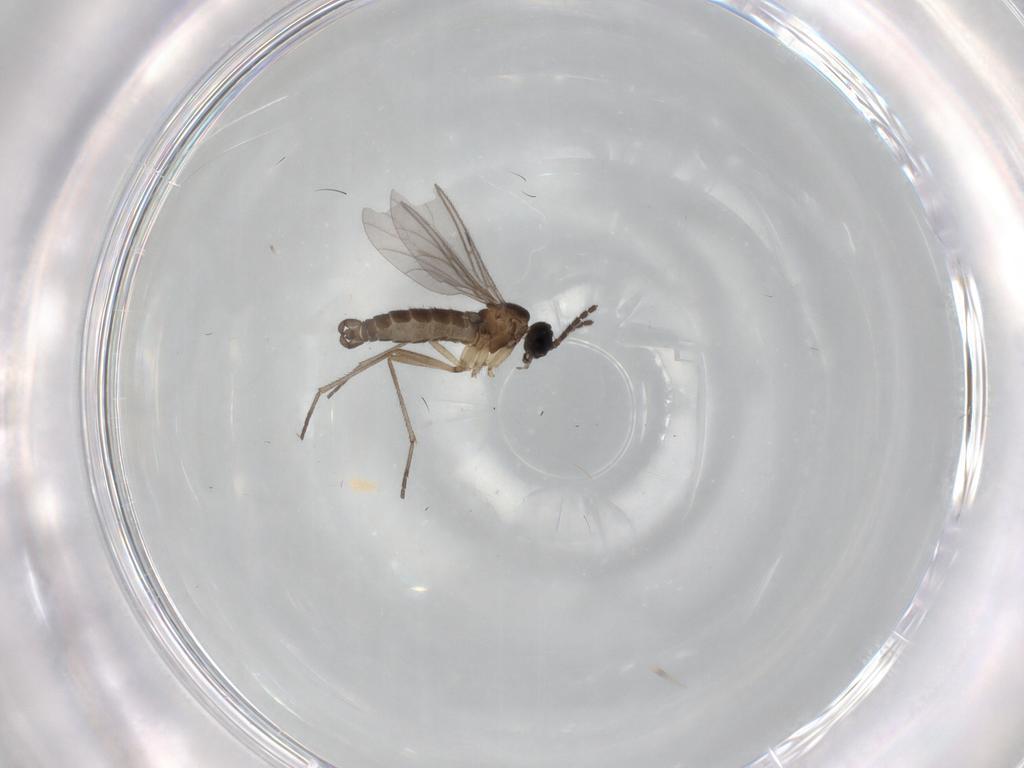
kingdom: Animalia
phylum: Arthropoda
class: Insecta
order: Diptera
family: Sciaridae
